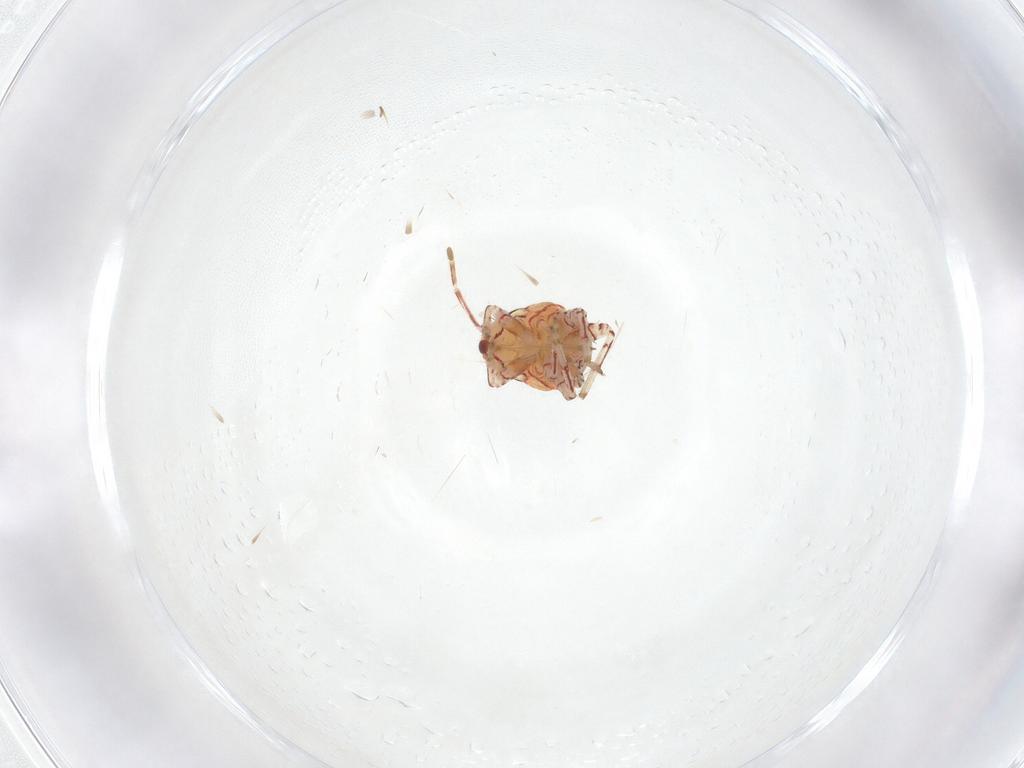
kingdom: Animalia
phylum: Arthropoda
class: Insecta
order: Hemiptera
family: Miridae
